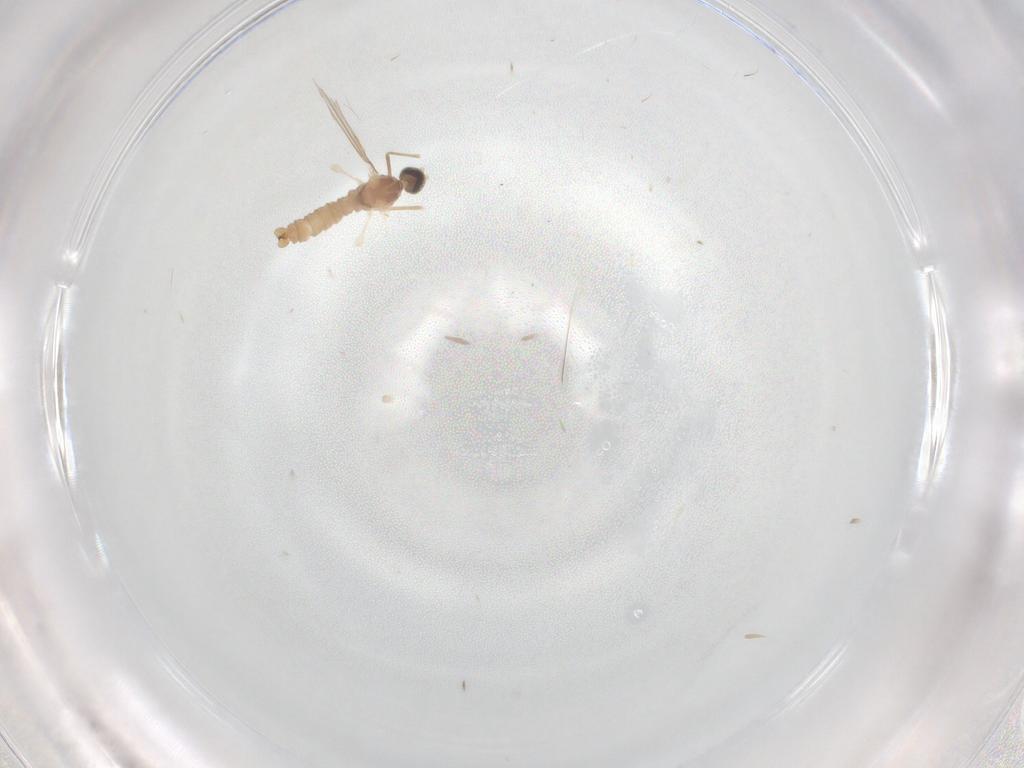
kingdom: Animalia
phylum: Arthropoda
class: Insecta
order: Diptera
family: Cecidomyiidae
